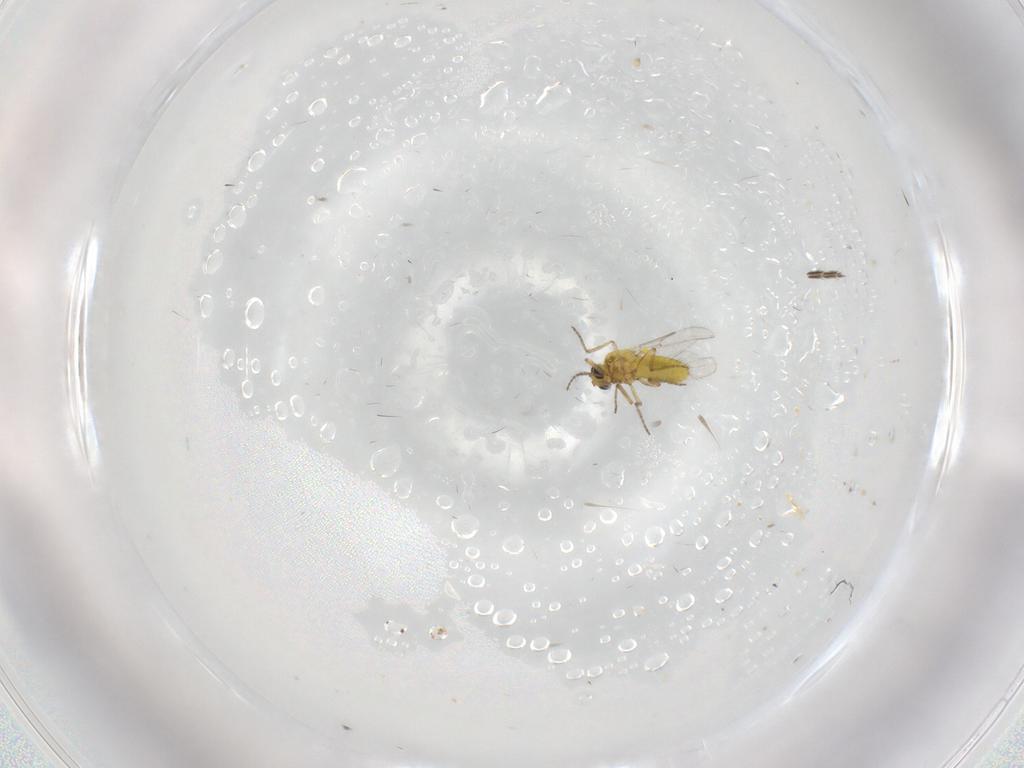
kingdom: Animalia
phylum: Arthropoda
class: Insecta
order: Diptera
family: Ceratopogonidae
